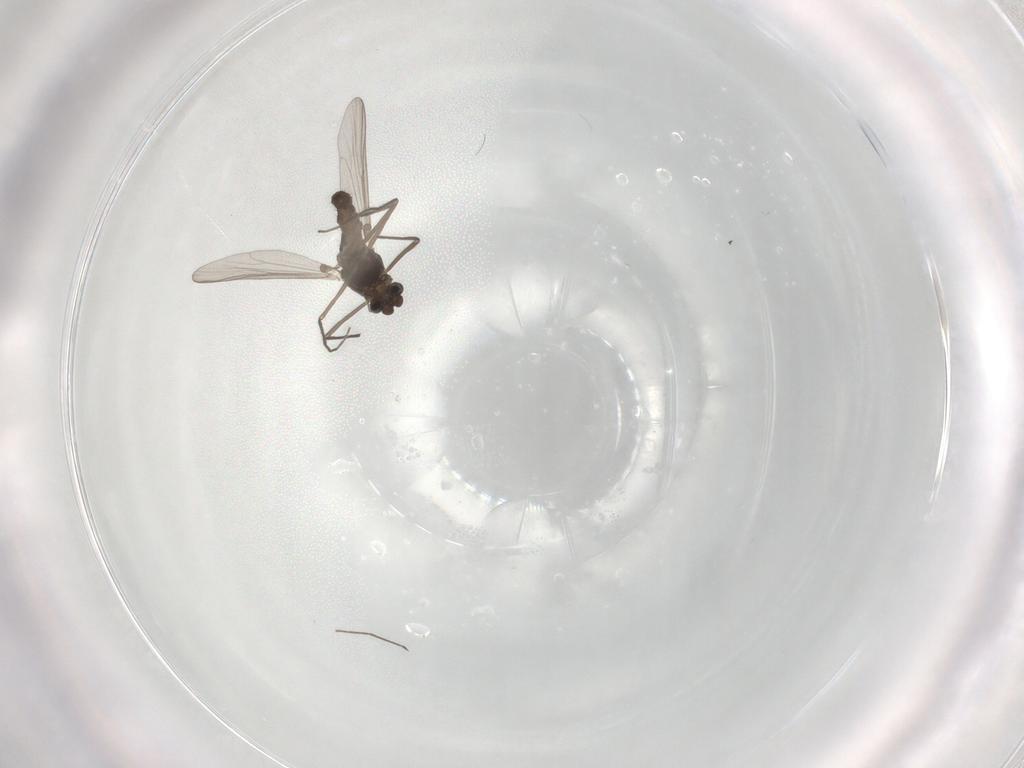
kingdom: Animalia
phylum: Arthropoda
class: Insecta
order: Diptera
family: Chironomidae
